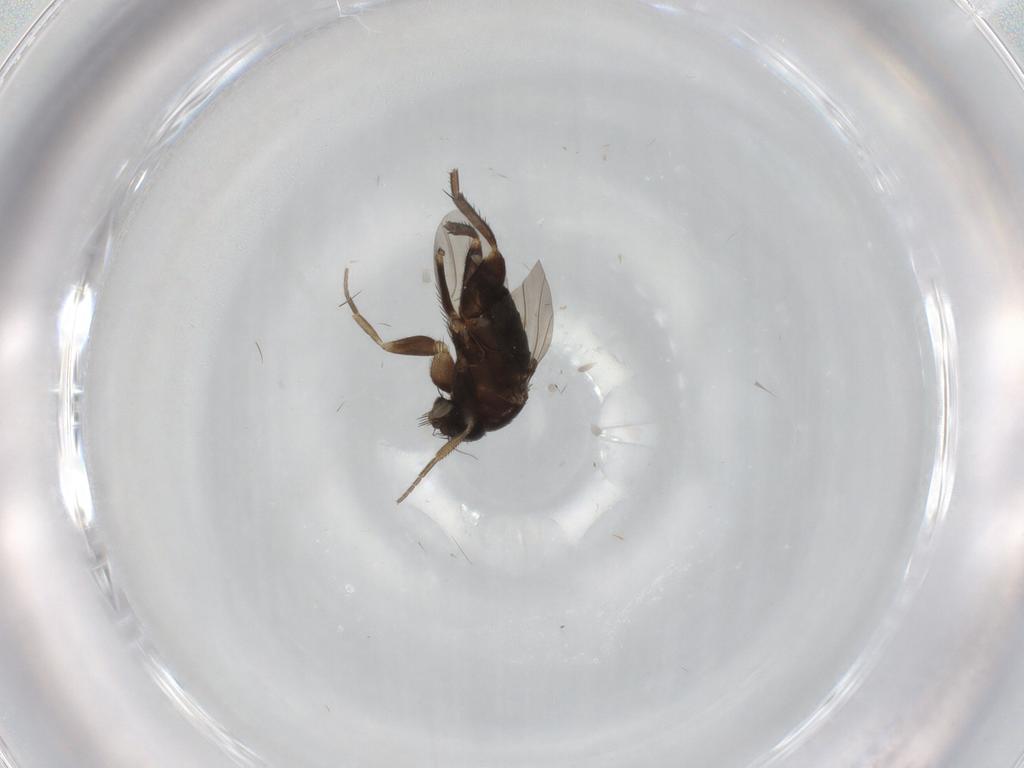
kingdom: Animalia
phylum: Arthropoda
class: Insecta
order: Diptera
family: Phoridae
